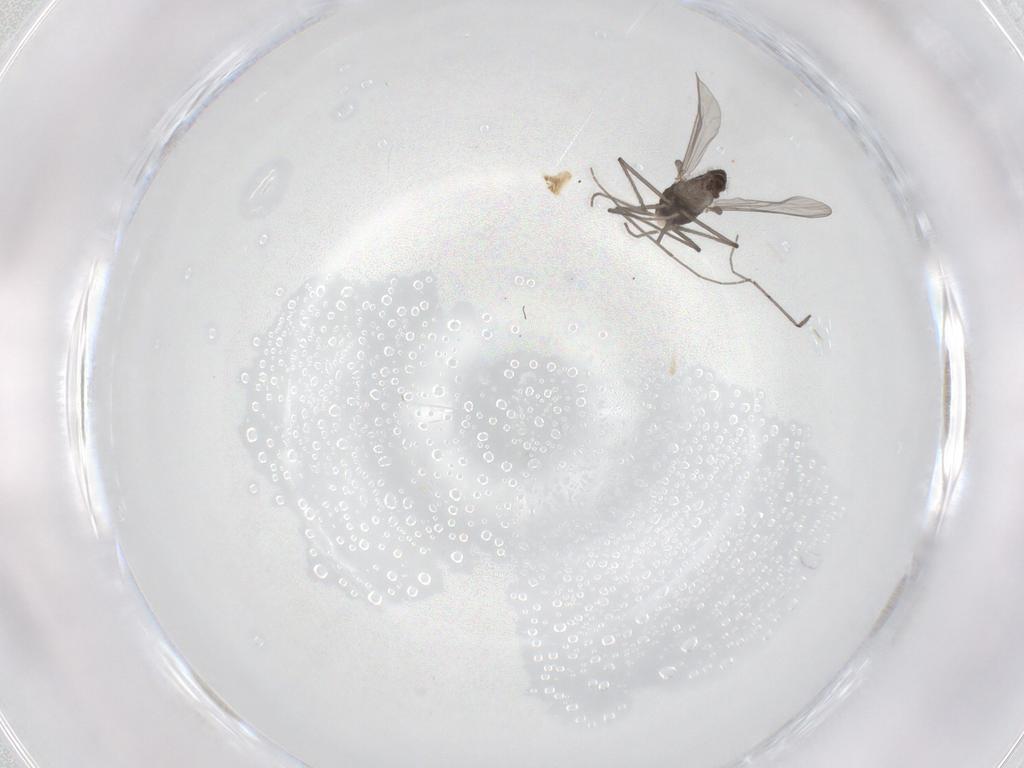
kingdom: Animalia
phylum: Arthropoda
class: Insecta
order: Diptera
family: Chironomidae
